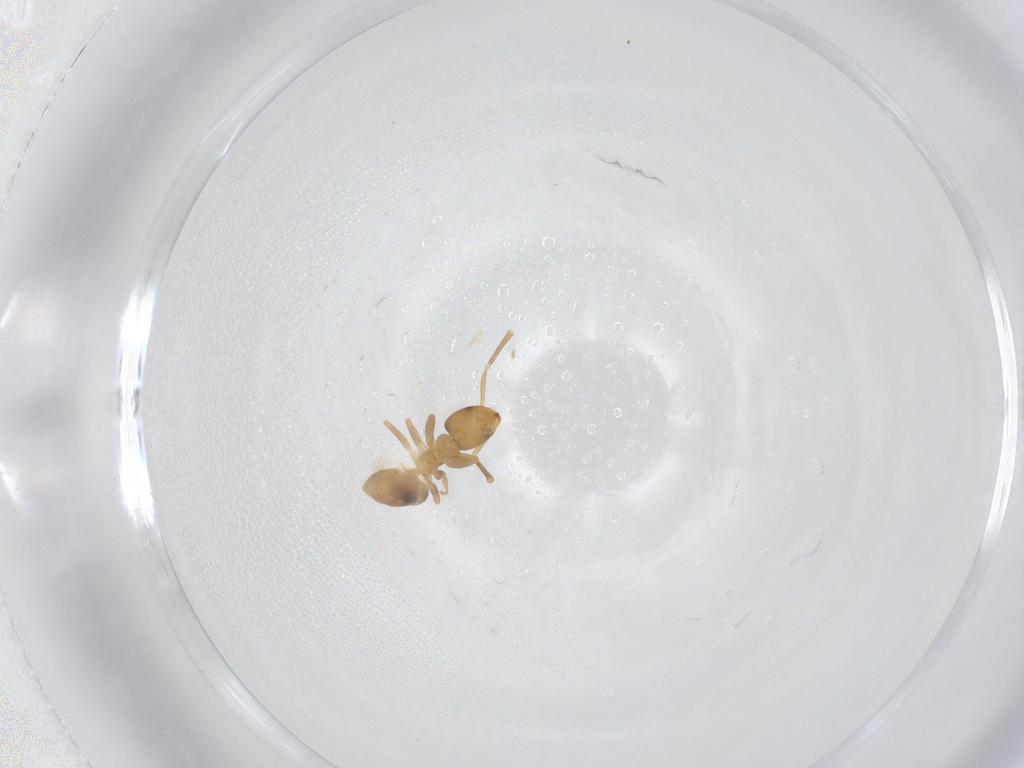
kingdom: Animalia
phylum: Arthropoda
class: Insecta
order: Hymenoptera
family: Formicidae
